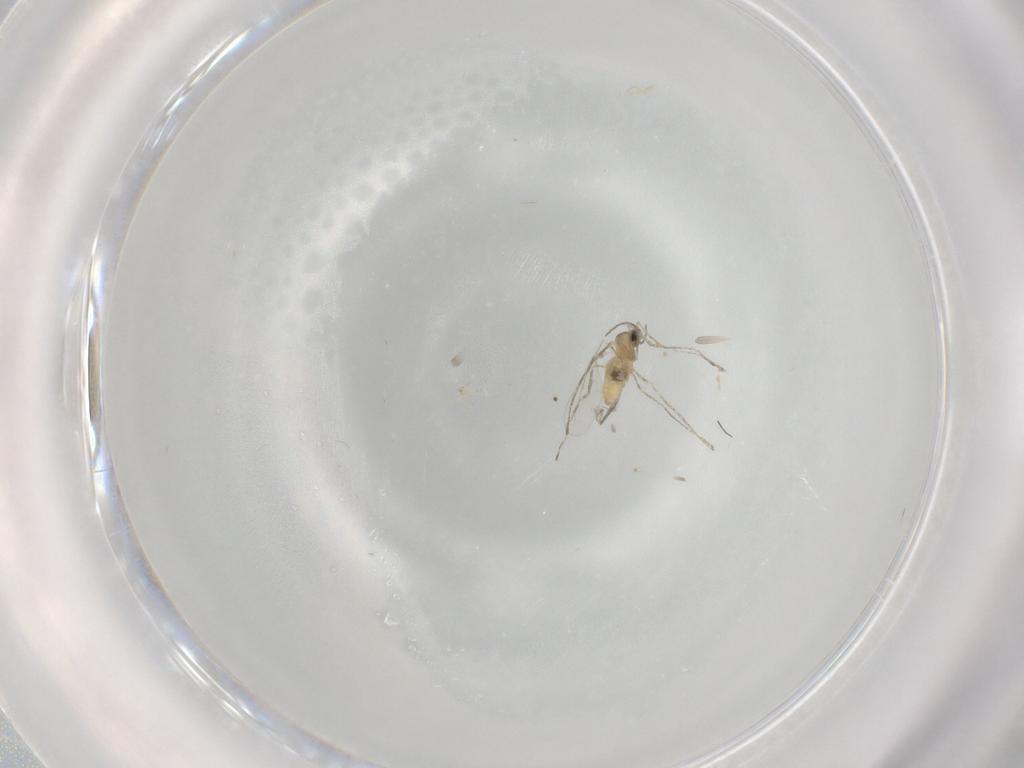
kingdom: Animalia
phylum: Arthropoda
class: Insecta
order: Diptera
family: Cecidomyiidae
